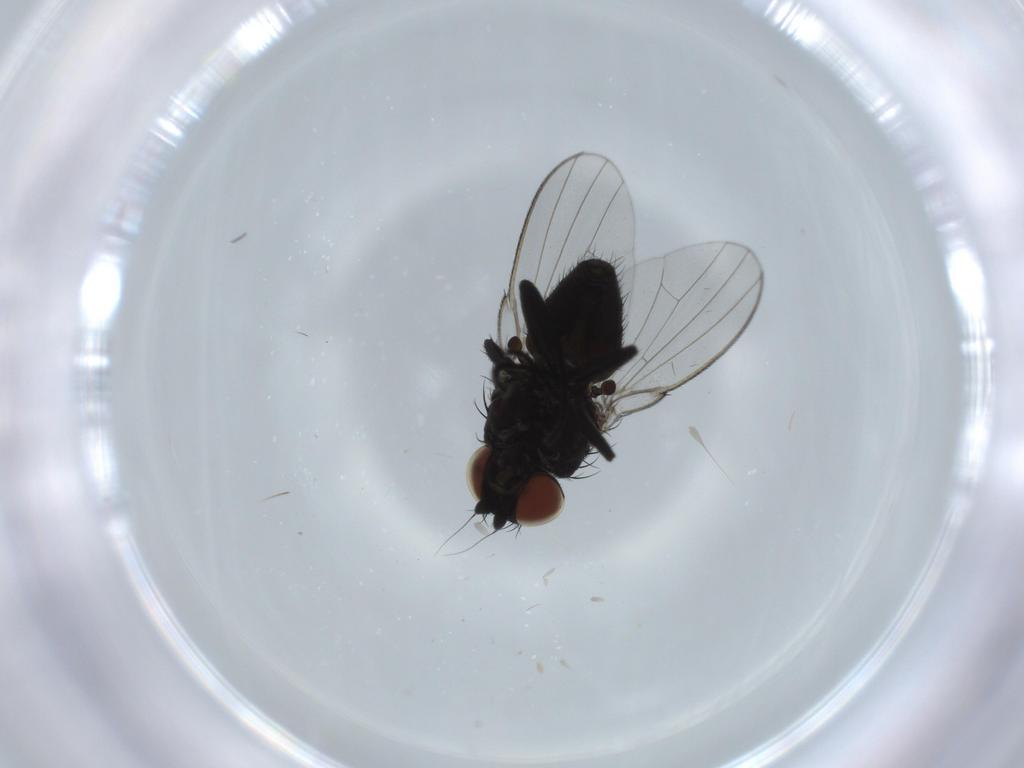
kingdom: Animalia
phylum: Arthropoda
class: Insecta
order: Diptera
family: Milichiidae
